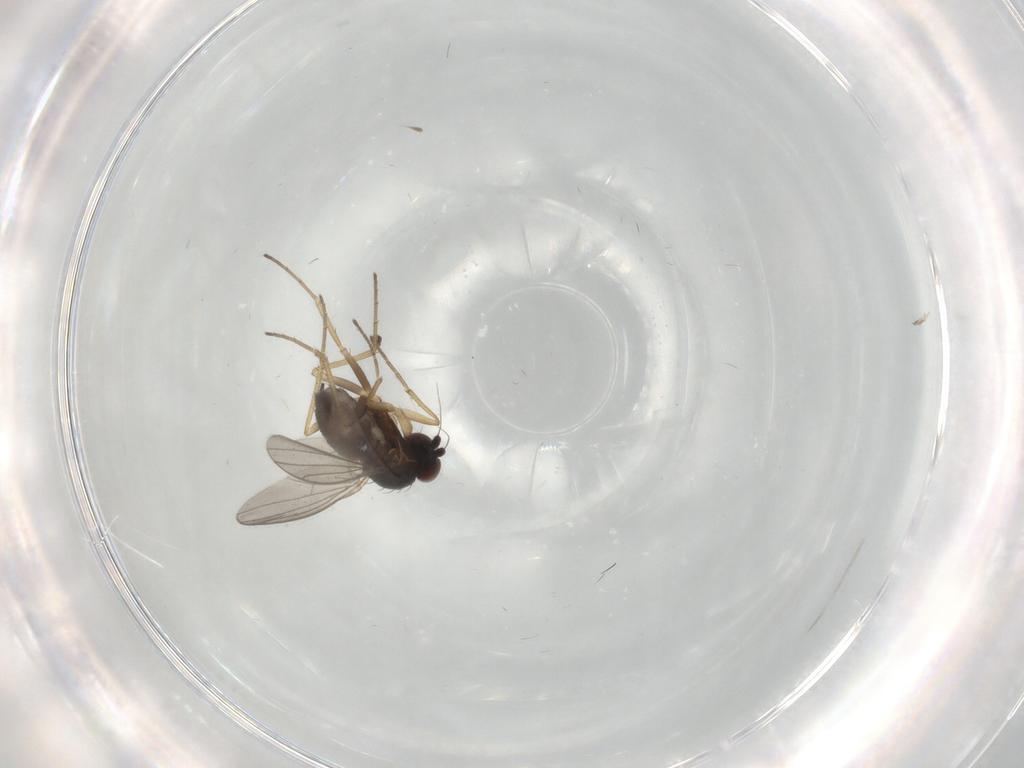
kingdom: Animalia
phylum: Arthropoda
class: Insecta
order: Diptera
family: Dolichopodidae
